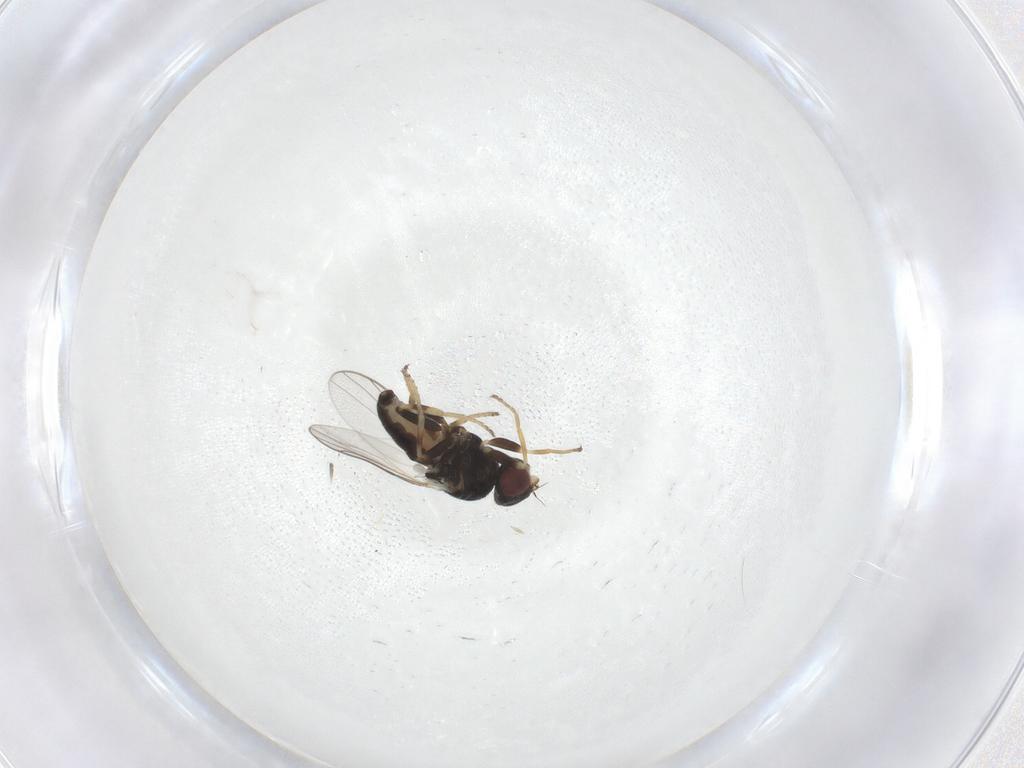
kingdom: Animalia
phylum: Arthropoda
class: Insecta
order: Diptera
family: Chloropidae
